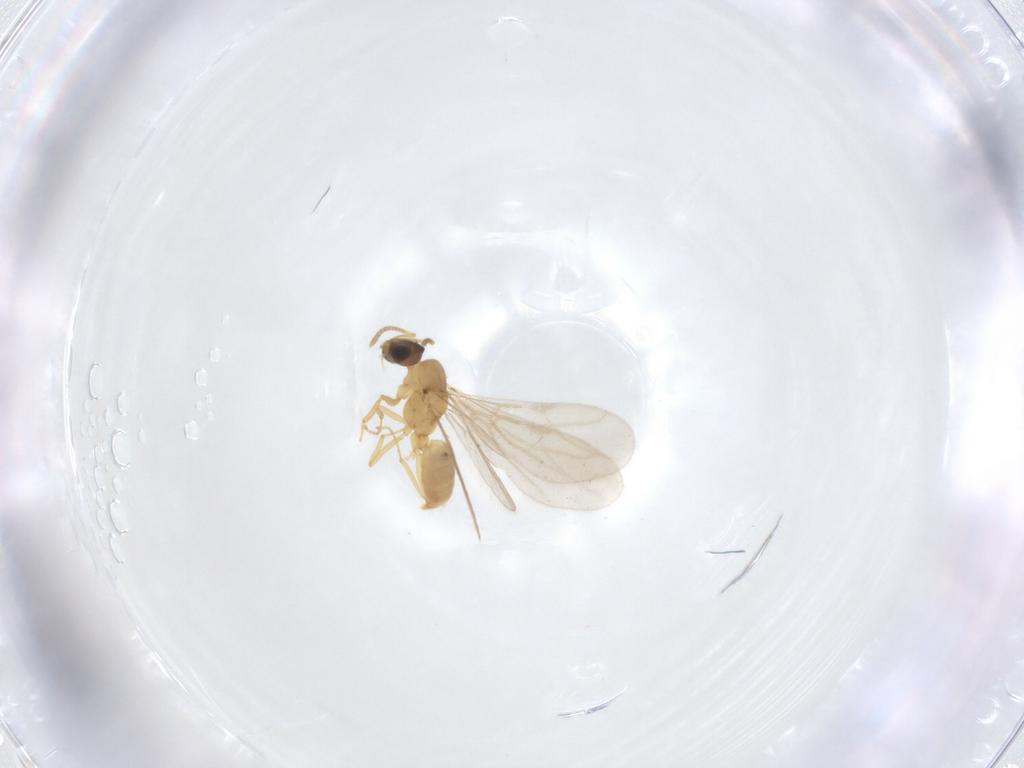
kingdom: Animalia
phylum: Arthropoda
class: Insecta
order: Hymenoptera
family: Formicidae
